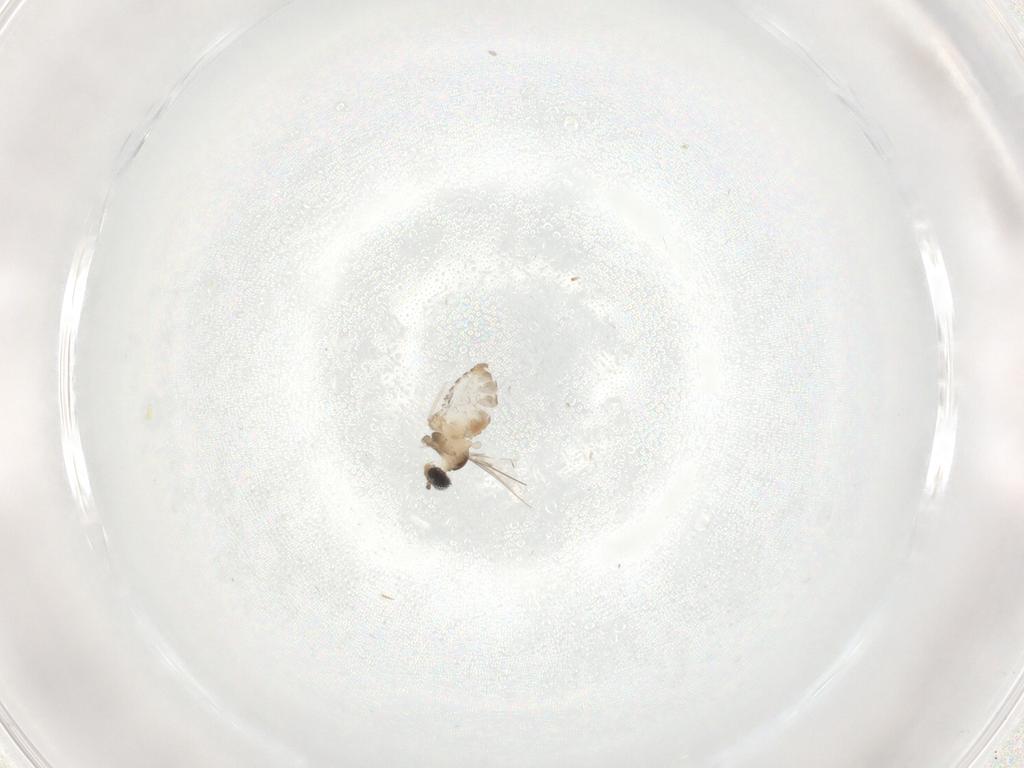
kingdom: Animalia
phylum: Arthropoda
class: Insecta
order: Diptera
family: Cecidomyiidae
